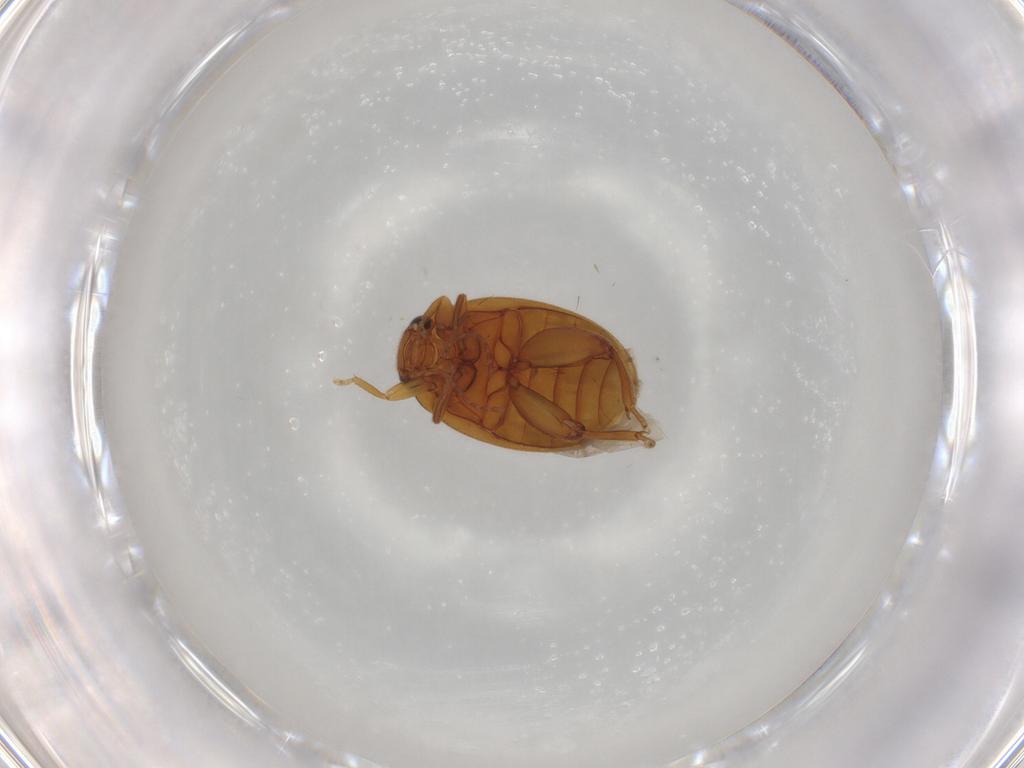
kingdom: Animalia
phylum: Arthropoda
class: Insecta
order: Coleoptera
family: Scirtidae
